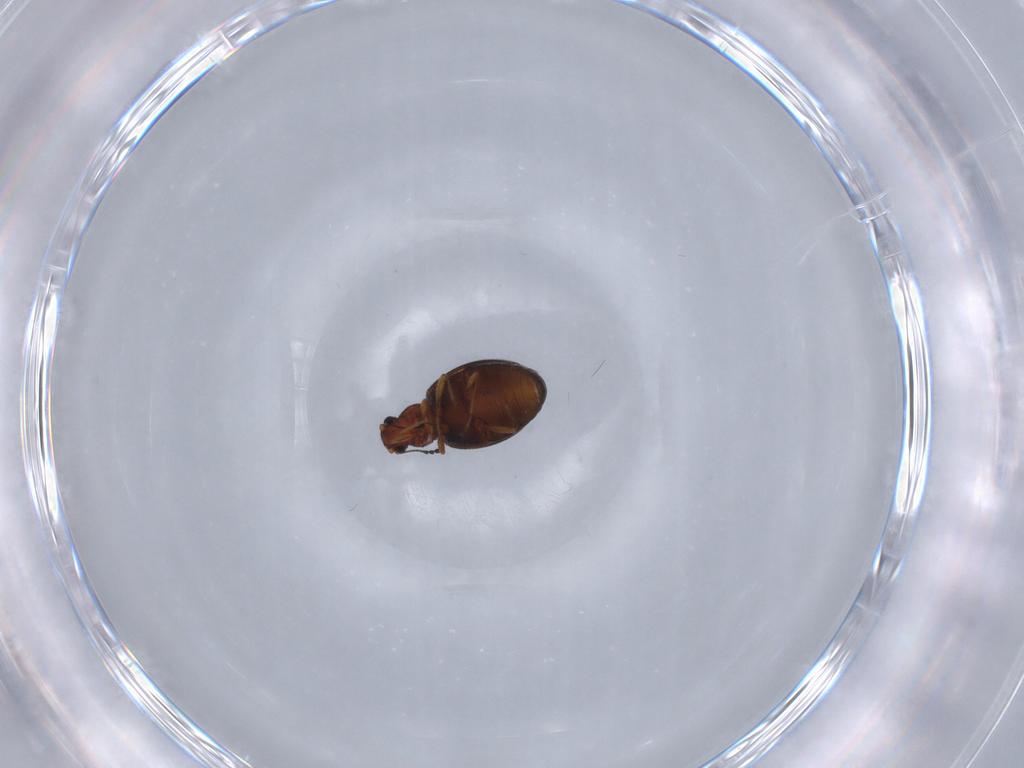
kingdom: Animalia
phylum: Arthropoda
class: Insecta
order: Coleoptera
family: Latridiidae
